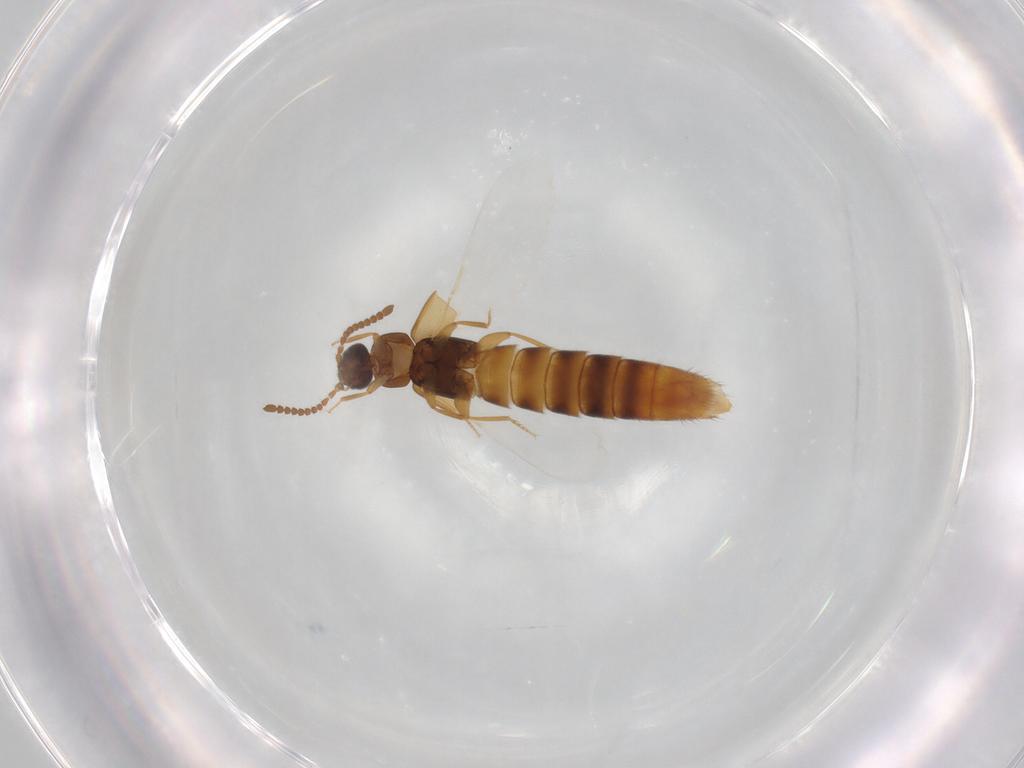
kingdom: Animalia
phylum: Arthropoda
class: Insecta
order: Coleoptera
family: Staphylinidae
